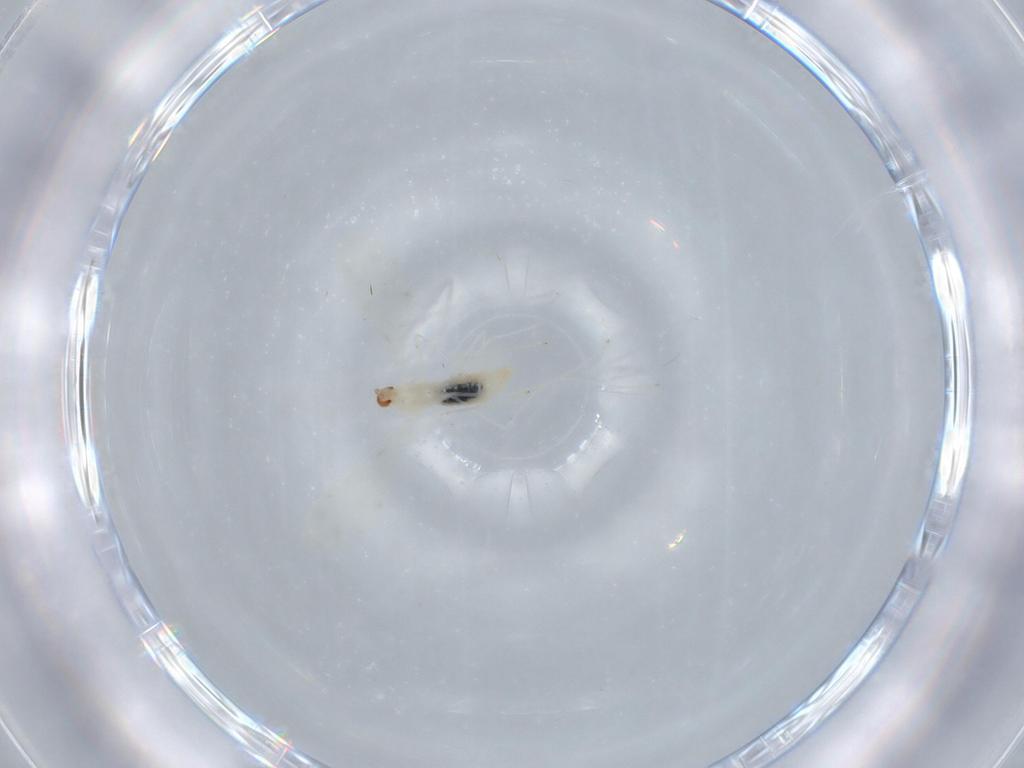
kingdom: Animalia
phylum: Arthropoda
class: Insecta
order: Diptera
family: Cecidomyiidae
